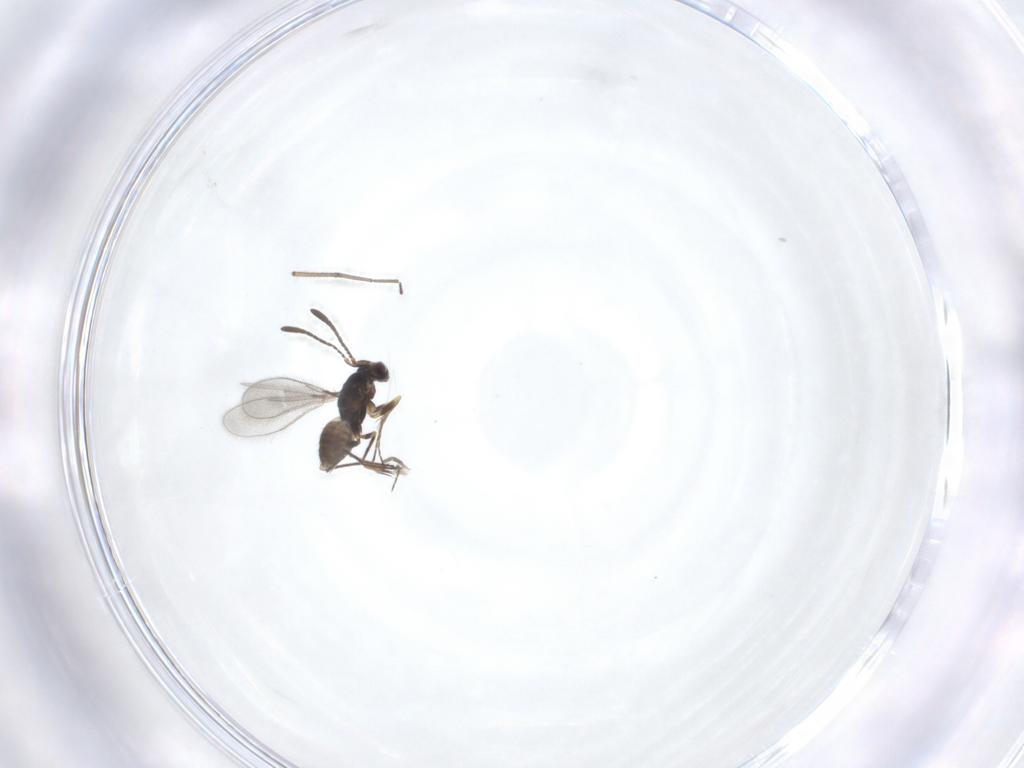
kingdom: Animalia
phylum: Arthropoda
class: Insecta
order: Hymenoptera
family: Mymaridae
